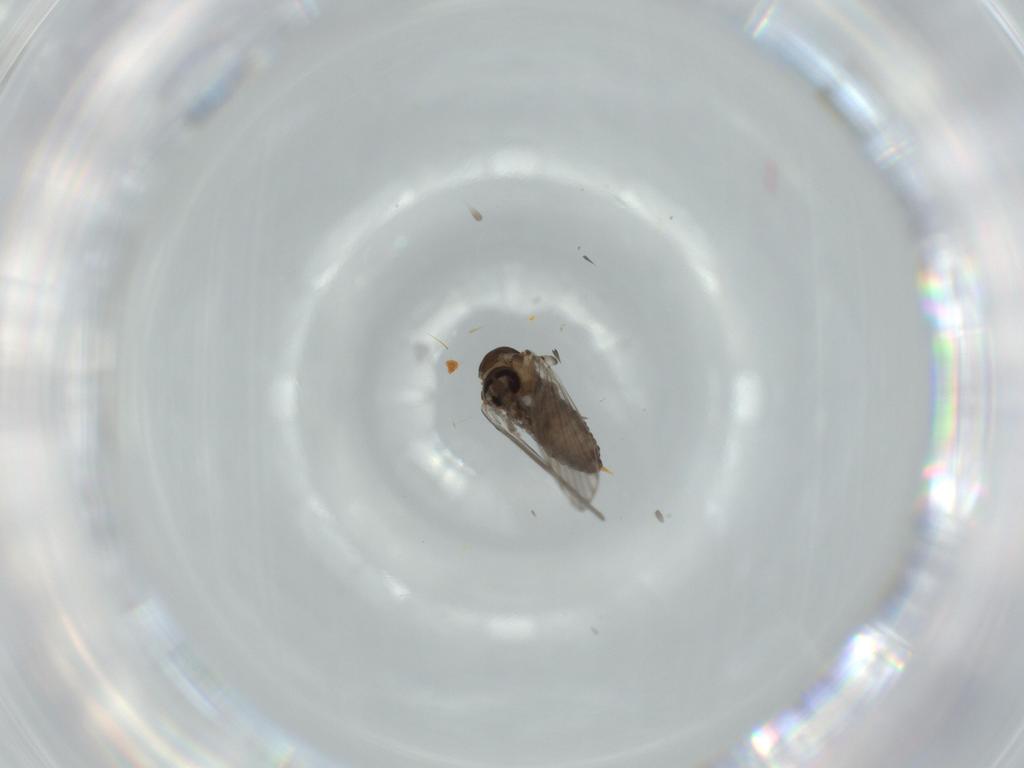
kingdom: Animalia
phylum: Arthropoda
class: Insecta
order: Diptera
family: Psychodidae
